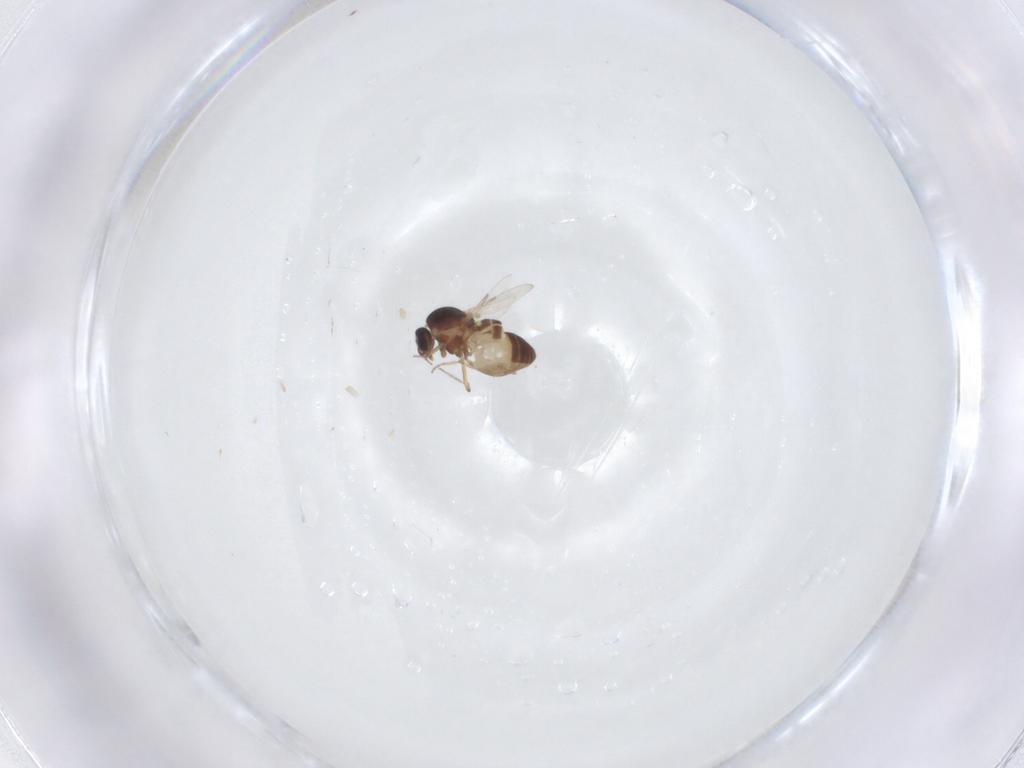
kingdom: Animalia
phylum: Arthropoda
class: Insecta
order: Diptera
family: Ceratopogonidae
